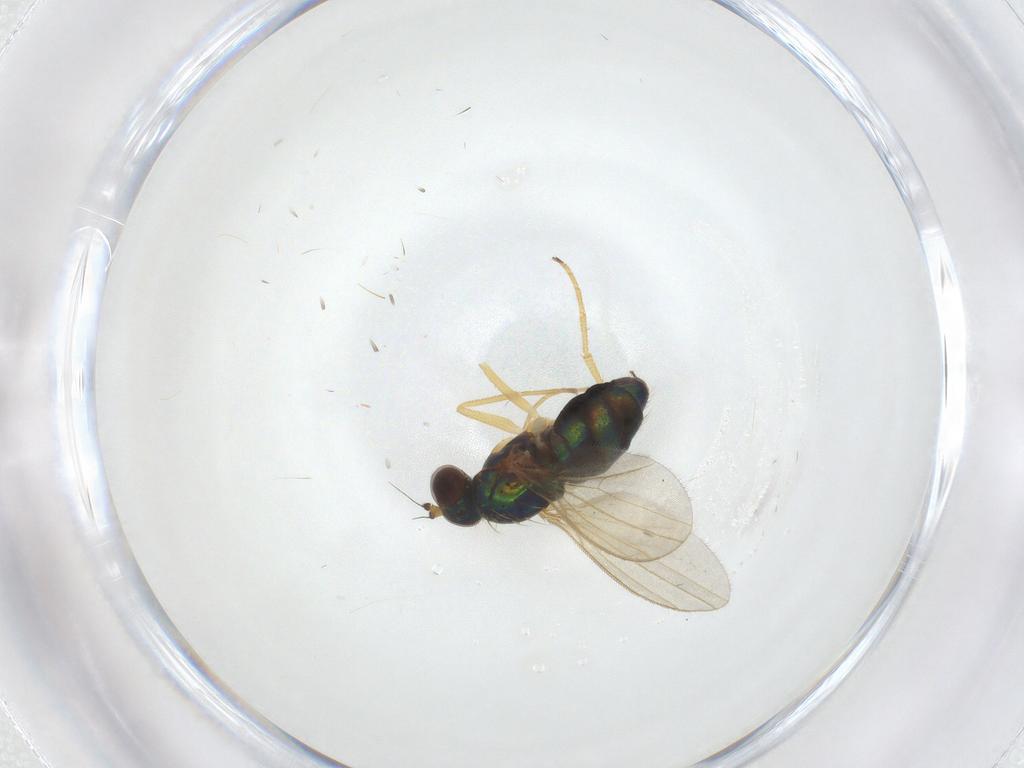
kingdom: Animalia
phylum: Arthropoda
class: Insecta
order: Diptera
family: Dolichopodidae
